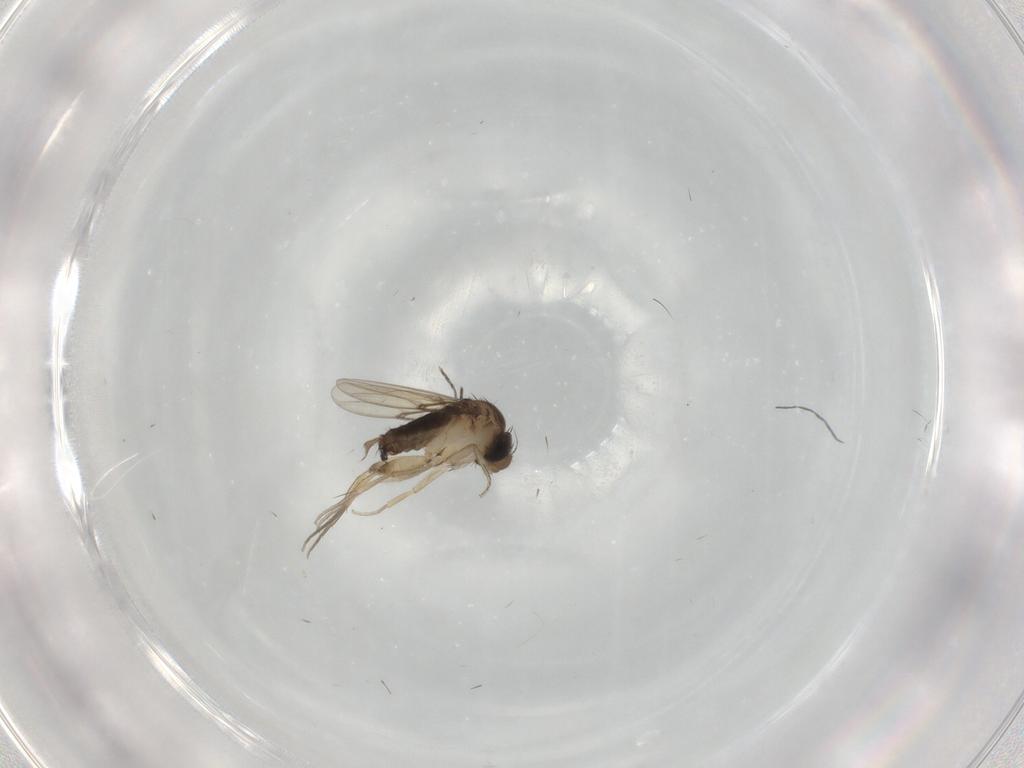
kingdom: Animalia
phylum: Arthropoda
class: Insecta
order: Diptera
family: Cecidomyiidae
